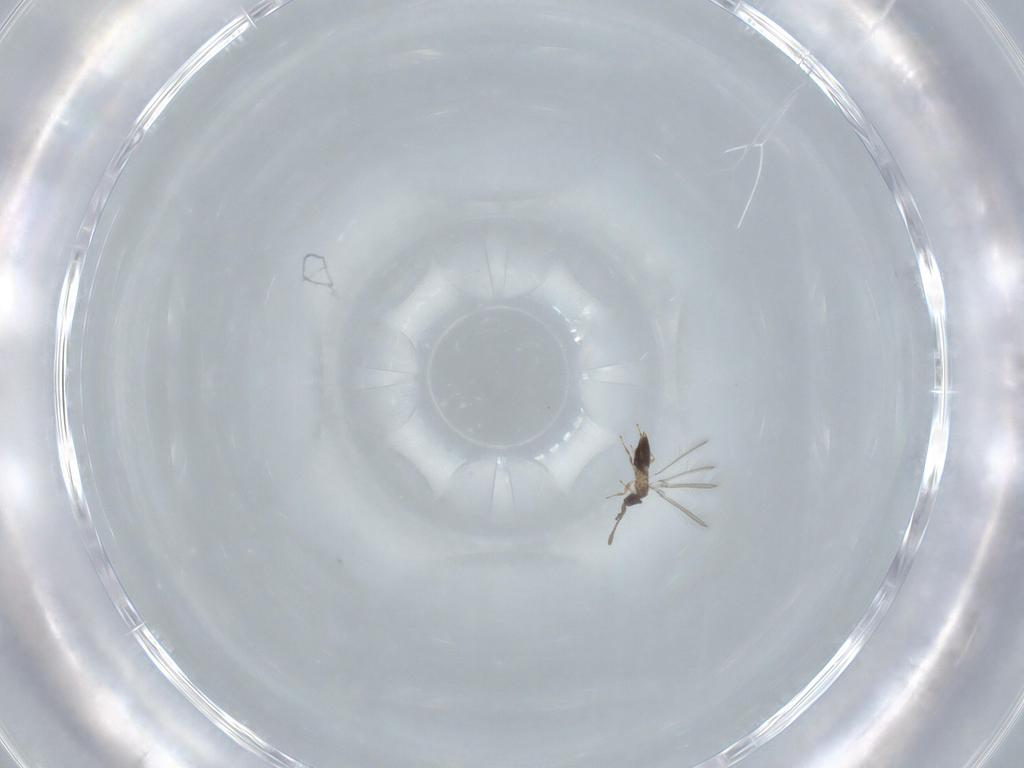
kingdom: Animalia
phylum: Arthropoda
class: Insecta
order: Hymenoptera
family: Mymaridae
